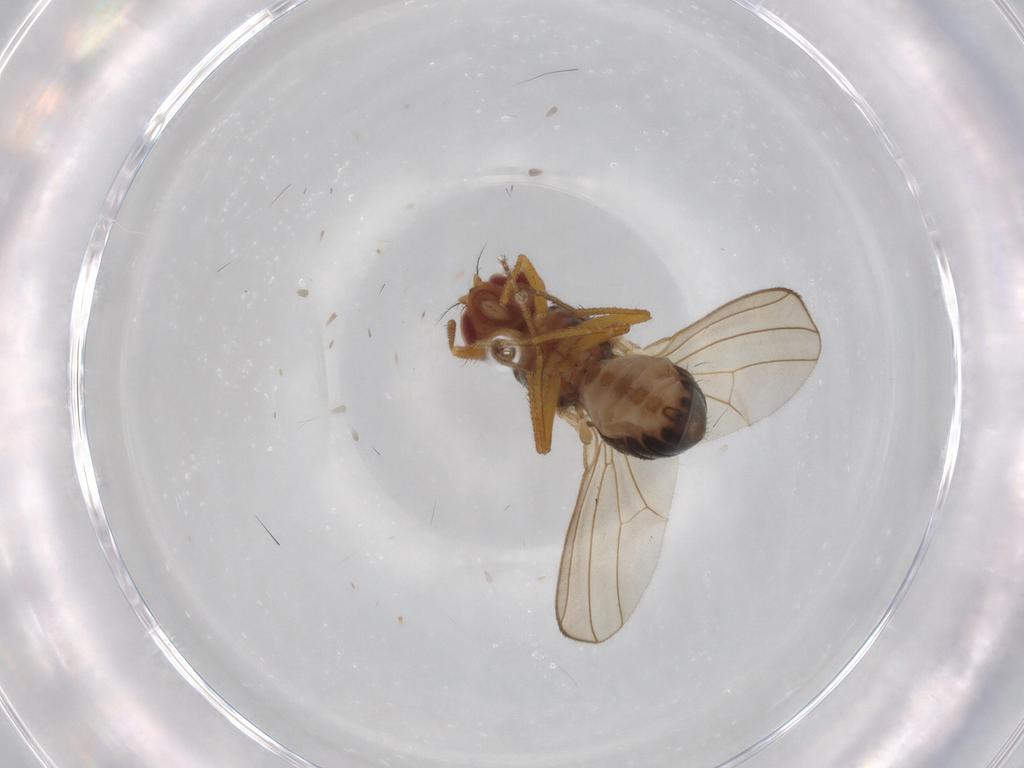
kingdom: Animalia
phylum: Arthropoda
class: Insecta
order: Diptera
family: Drosophilidae
